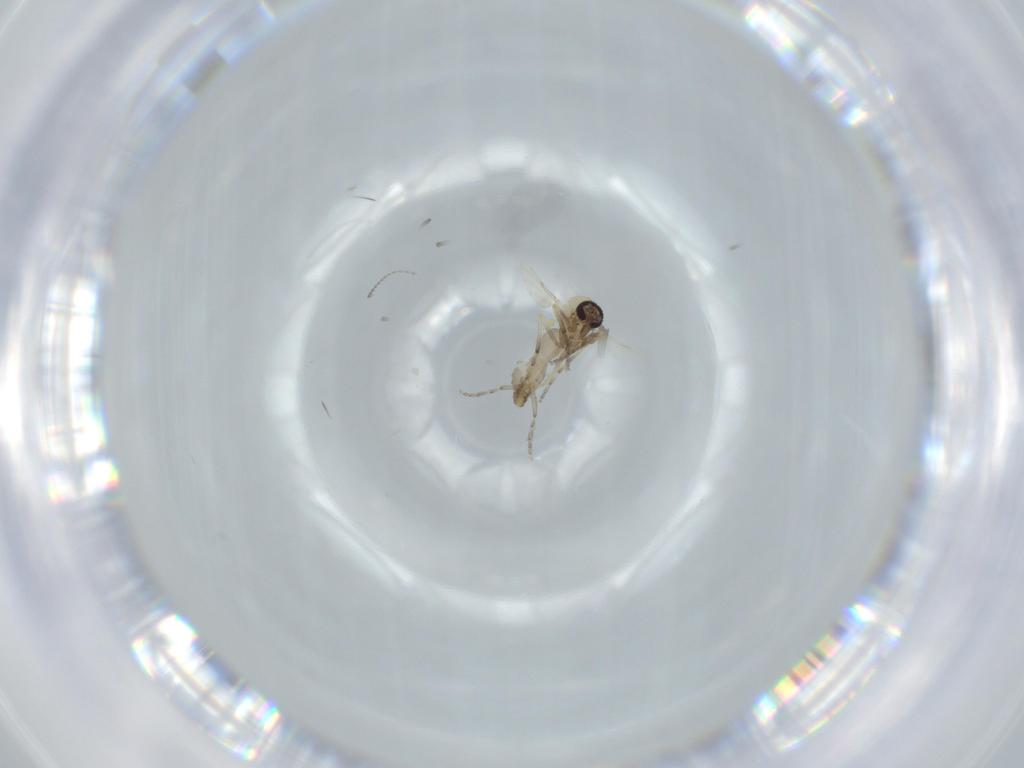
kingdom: Animalia
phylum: Arthropoda
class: Insecta
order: Diptera
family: Ceratopogonidae
